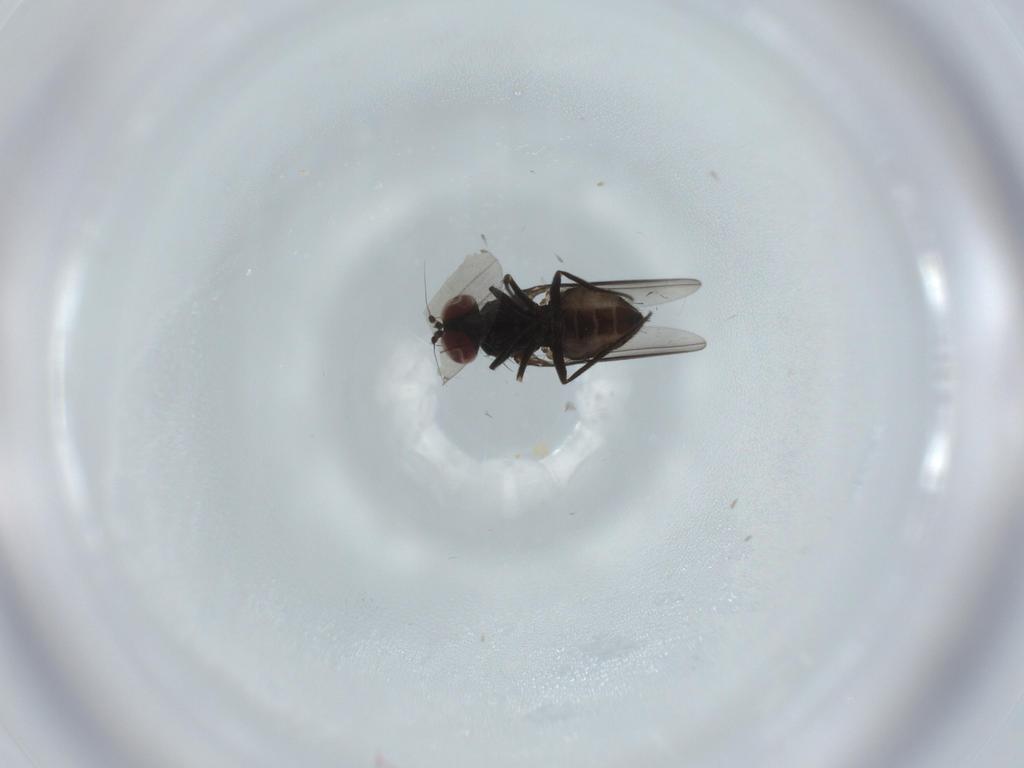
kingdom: Animalia
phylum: Arthropoda
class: Insecta
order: Diptera
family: Dolichopodidae
